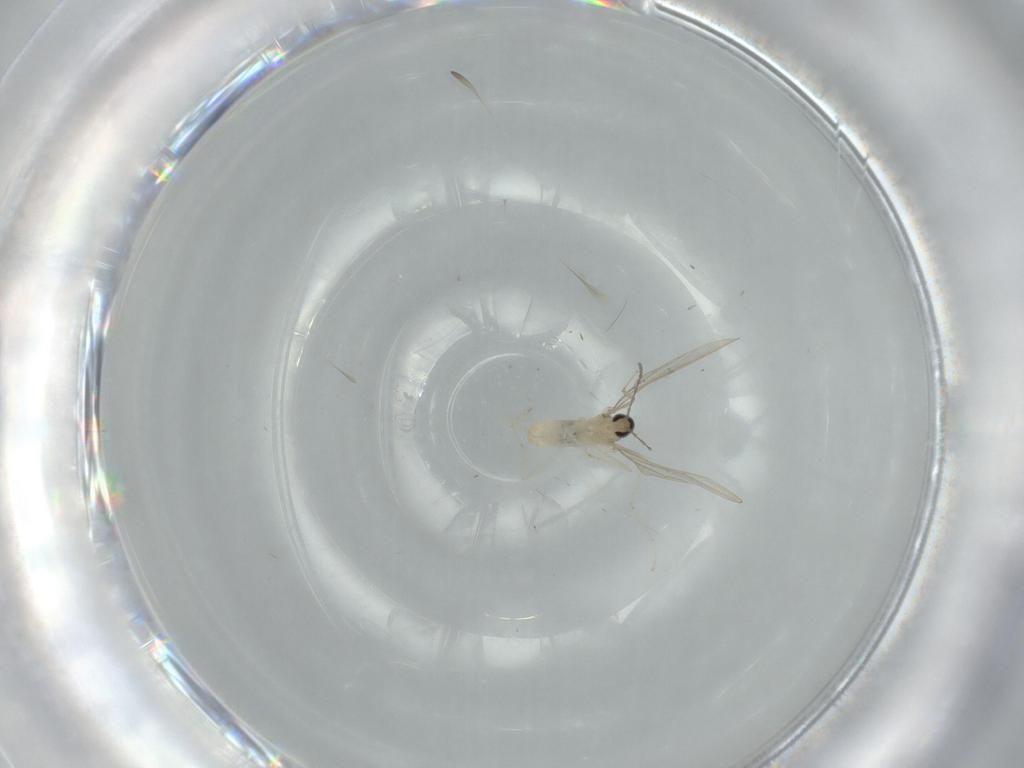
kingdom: Animalia
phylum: Arthropoda
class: Insecta
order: Diptera
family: Cecidomyiidae
